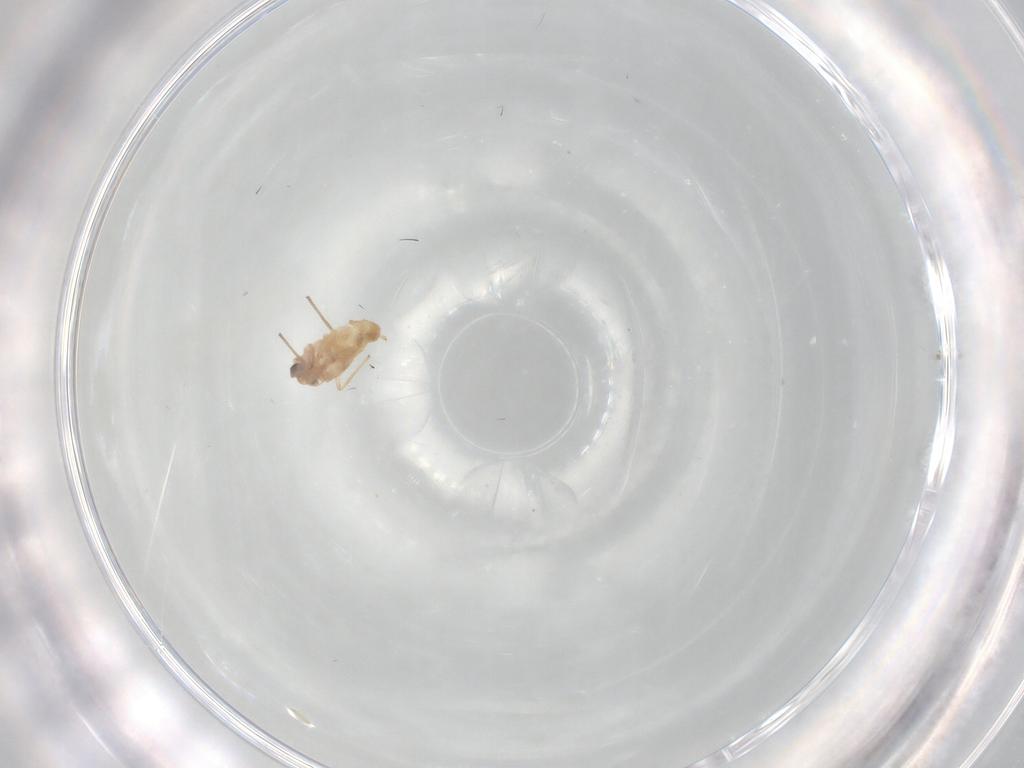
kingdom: Animalia
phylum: Arthropoda
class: Insecta
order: Diptera
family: Chironomidae
